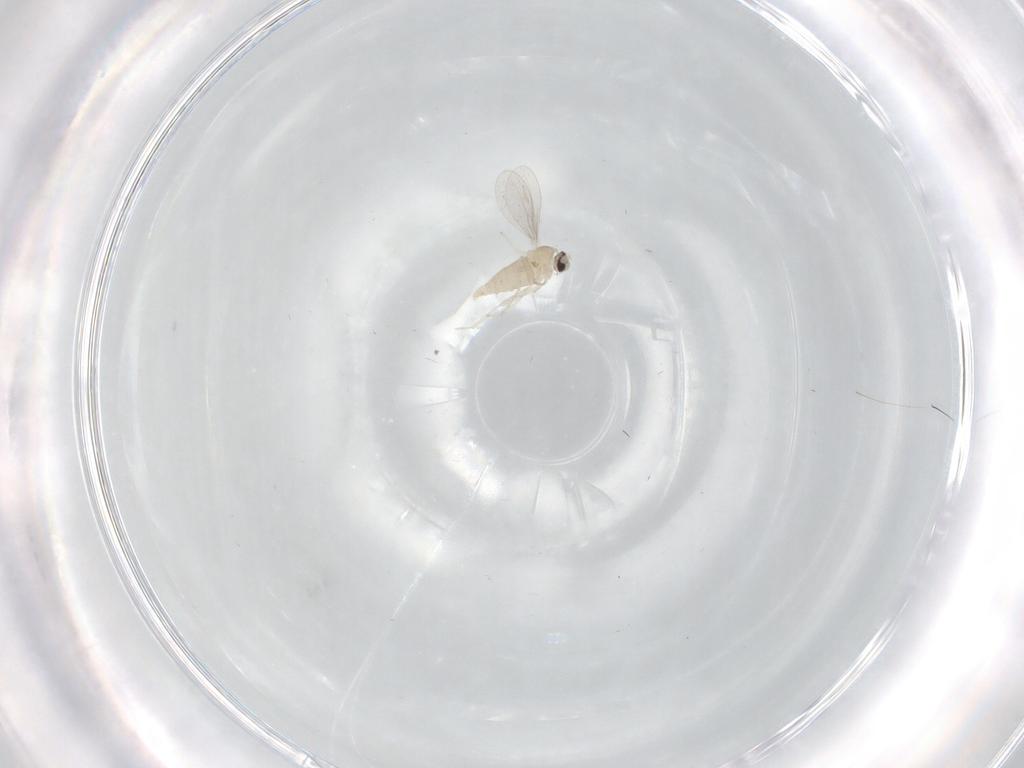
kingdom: Animalia
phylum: Arthropoda
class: Insecta
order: Diptera
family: Cecidomyiidae
